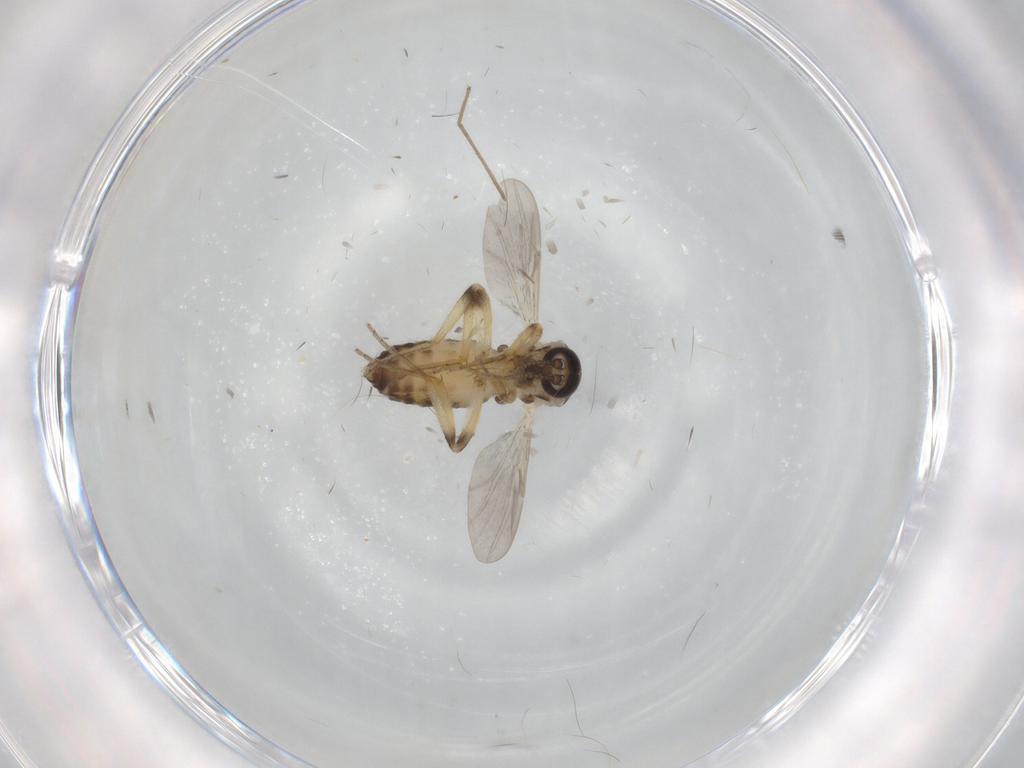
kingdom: Animalia
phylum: Arthropoda
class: Insecta
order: Diptera
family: Ceratopogonidae
